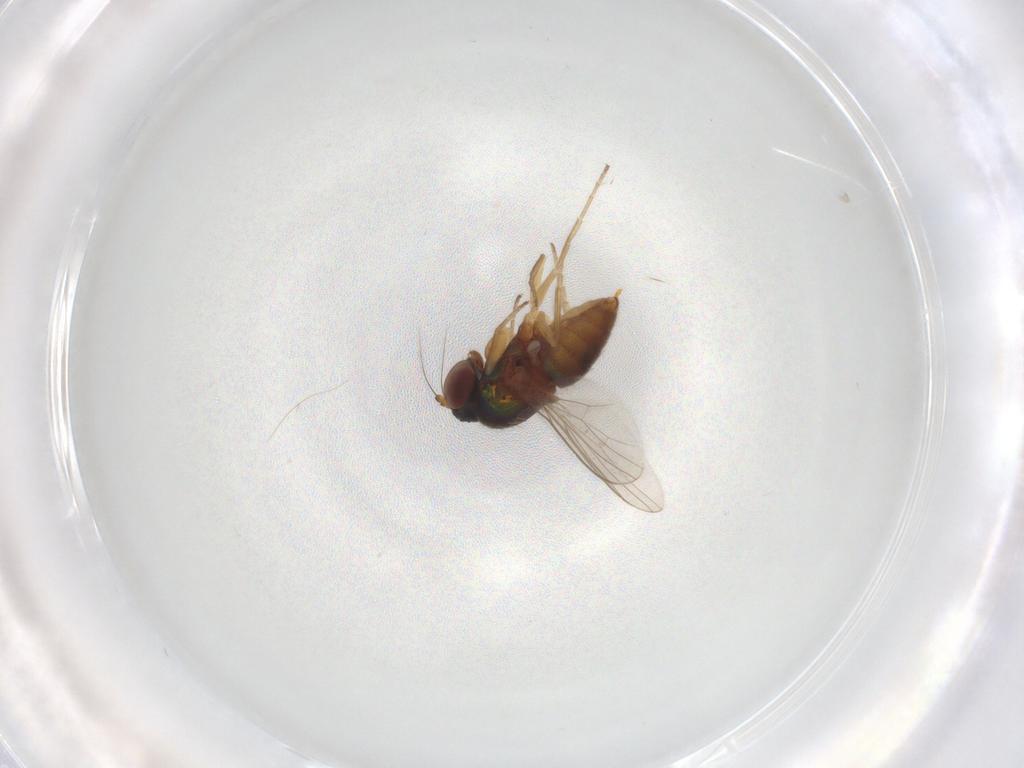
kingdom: Animalia
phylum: Arthropoda
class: Insecta
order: Diptera
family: Dolichopodidae
